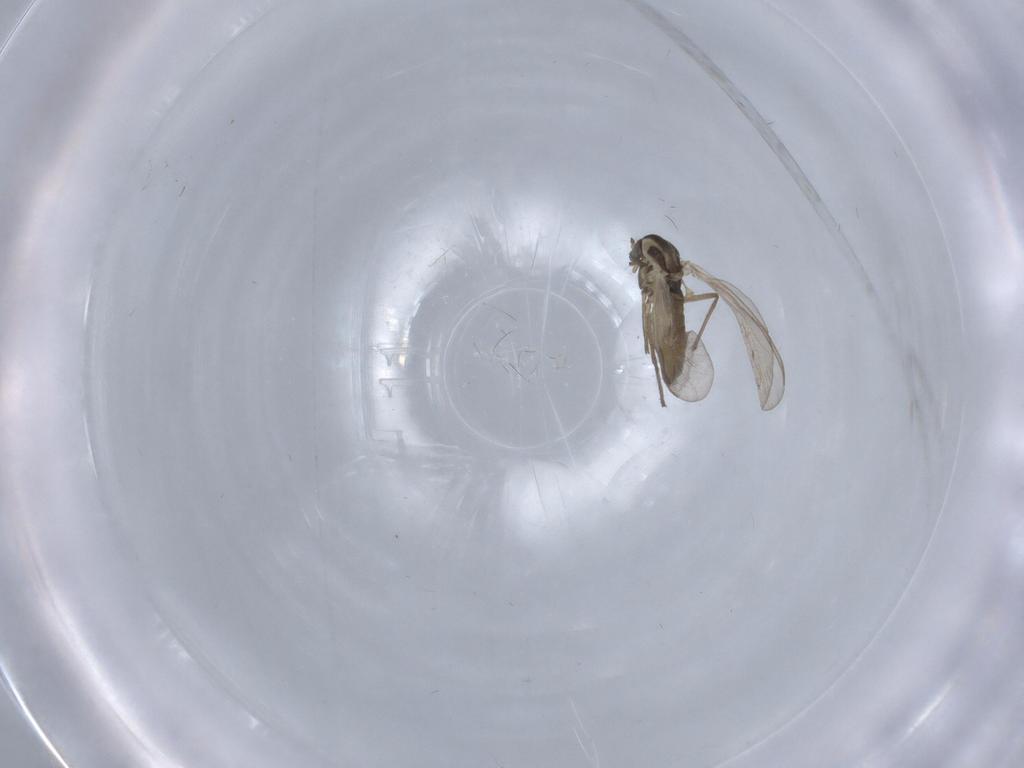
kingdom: Animalia
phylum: Arthropoda
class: Insecta
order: Diptera
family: Chironomidae
